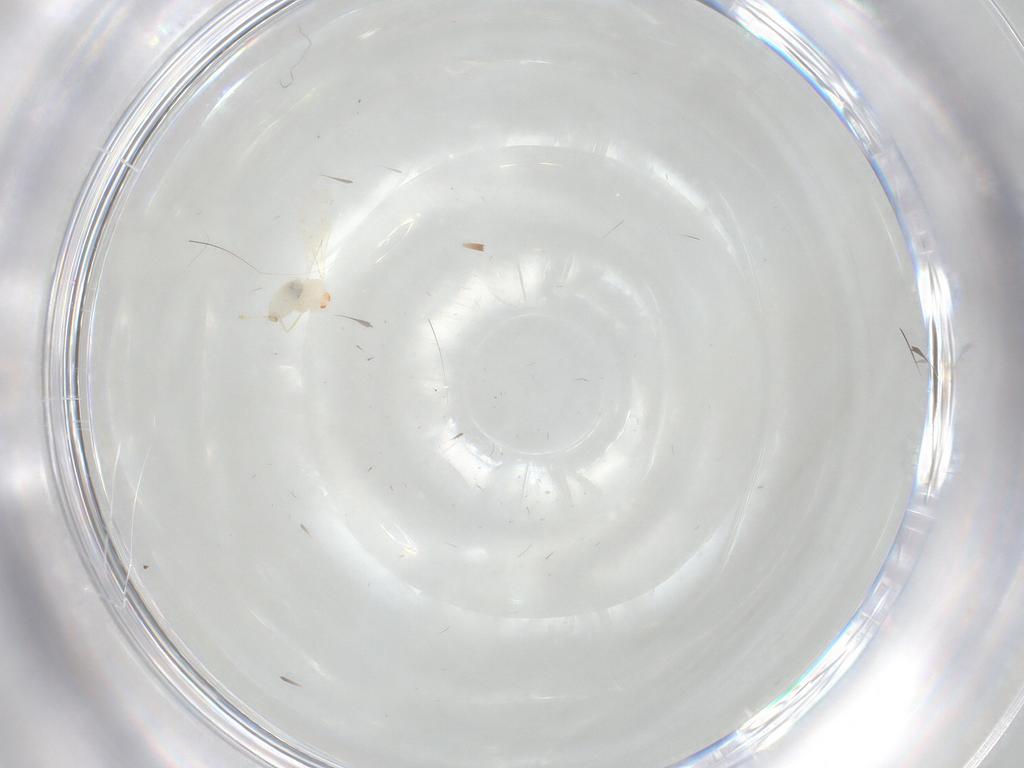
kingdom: Animalia
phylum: Arthropoda
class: Insecta
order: Diptera
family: Cecidomyiidae
